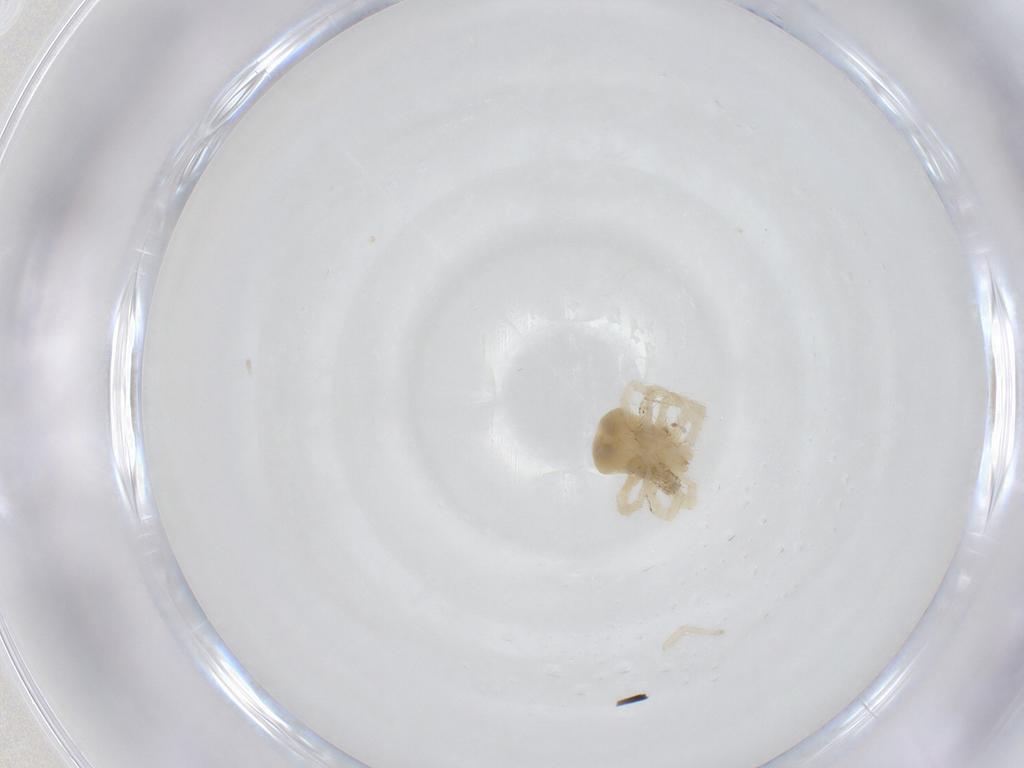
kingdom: Animalia
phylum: Arthropoda
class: Arachnida
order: Trombidiformes
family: Anystidae
